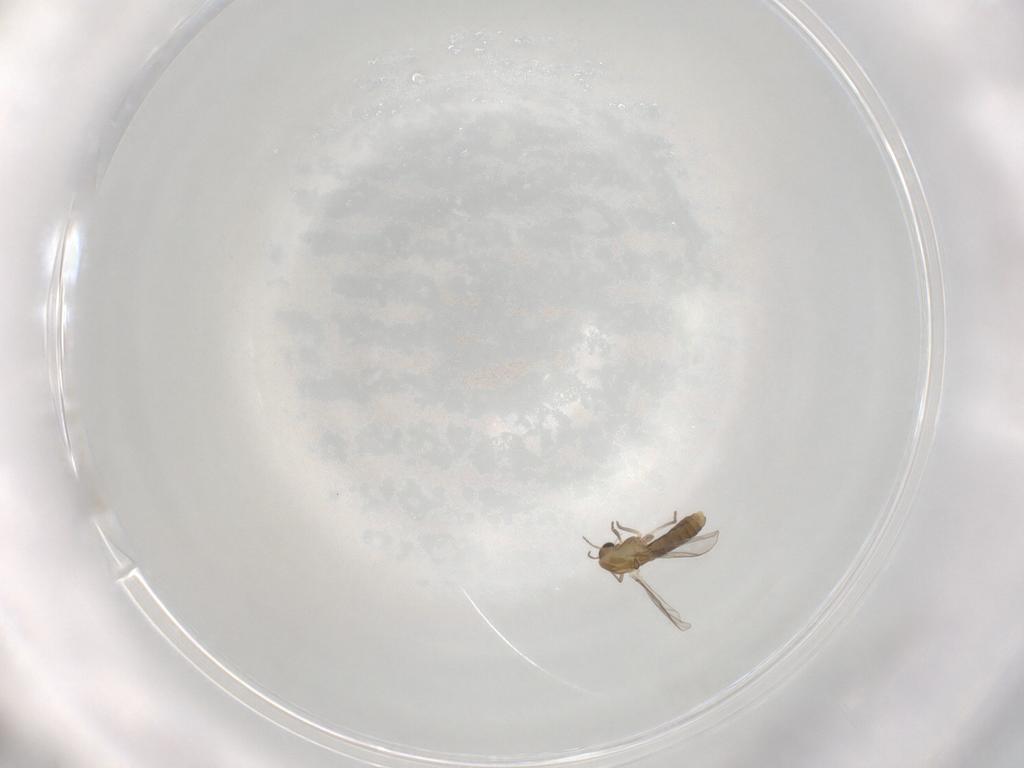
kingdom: Animalia
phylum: Arthropoda
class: Insecta
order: Diptera
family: Chironomidae
